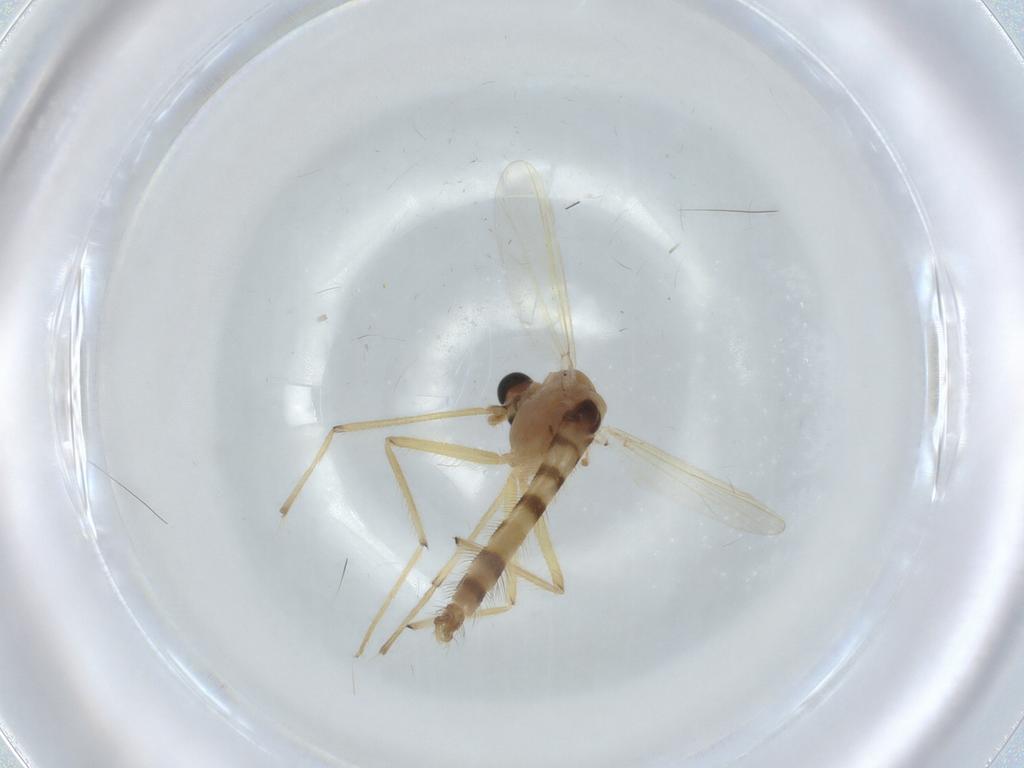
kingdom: Animalia
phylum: Arthropoda
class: Insecta
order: Diptera
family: Chironomidae
